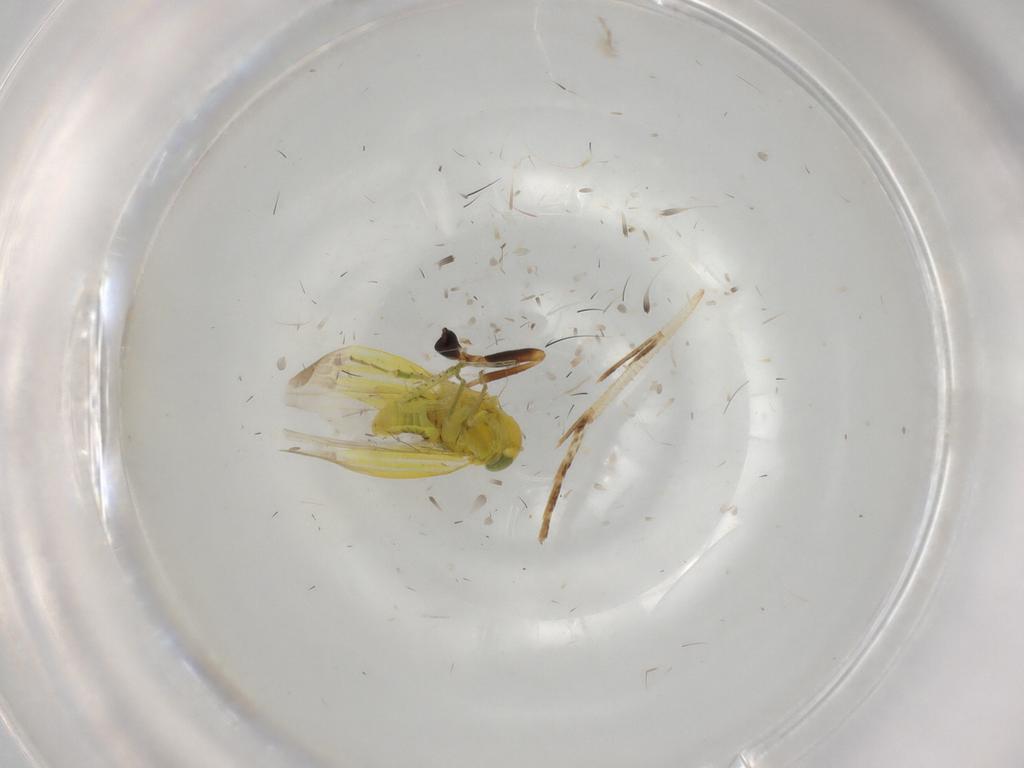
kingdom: Animalia
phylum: Arthropoda
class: Insecta
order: Hemiptera
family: Cicadellidae
